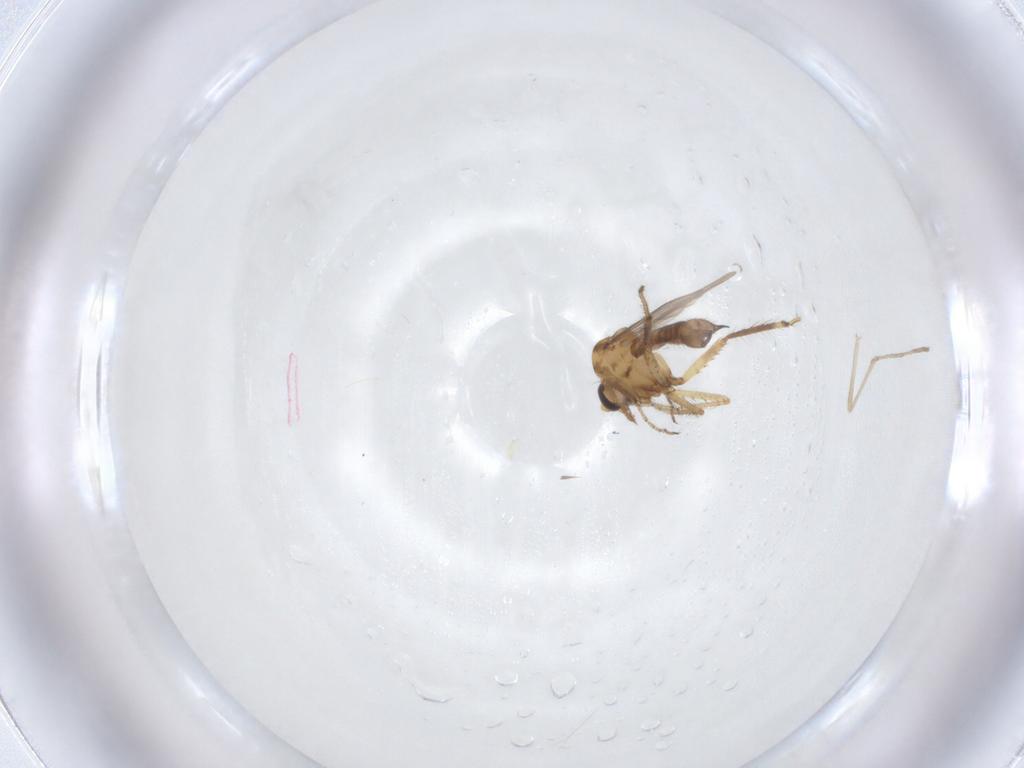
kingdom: Animalia
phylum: Arthropoda
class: Insecta
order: Diptera
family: Cecidomyiidae
